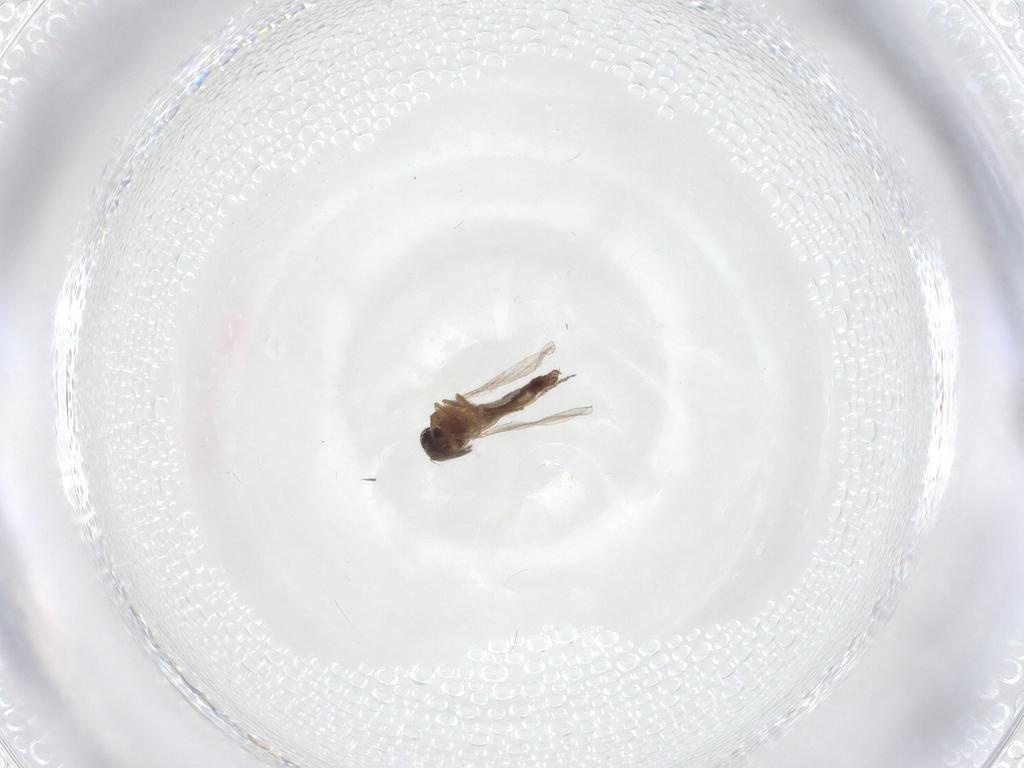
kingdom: Animalia
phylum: Arthropoda
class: Insecta
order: Diptera
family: Ceratopogonidae
